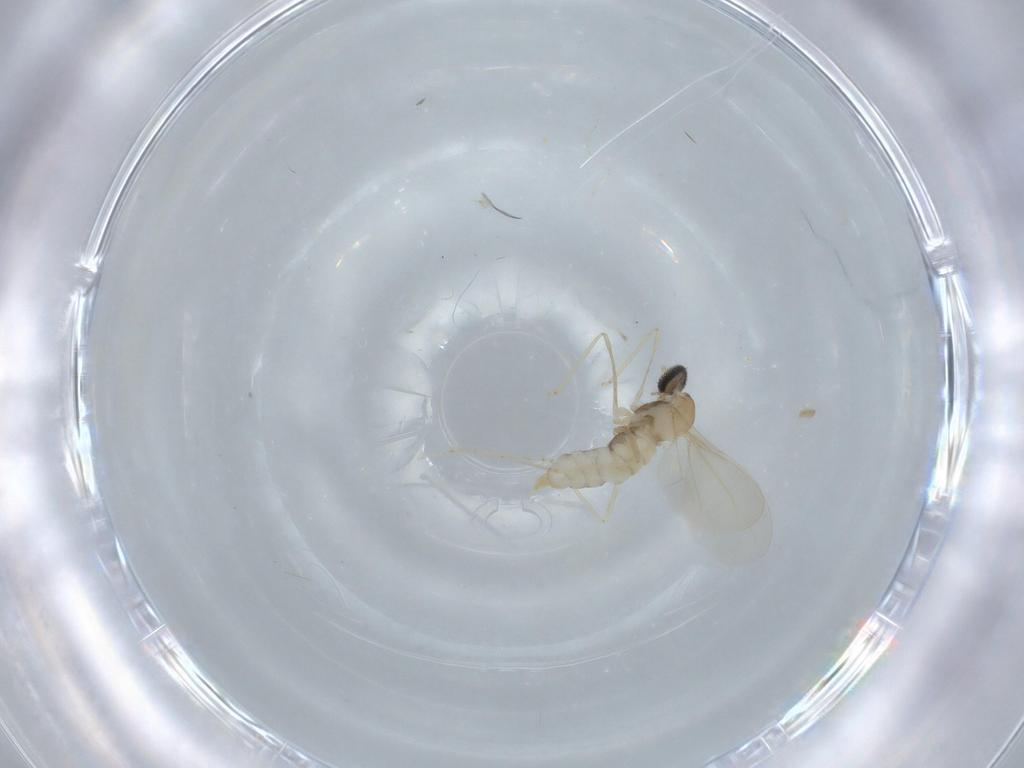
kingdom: Animalia
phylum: Arthropoda
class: Insecta
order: Diptera
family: Cecidomyiidae
